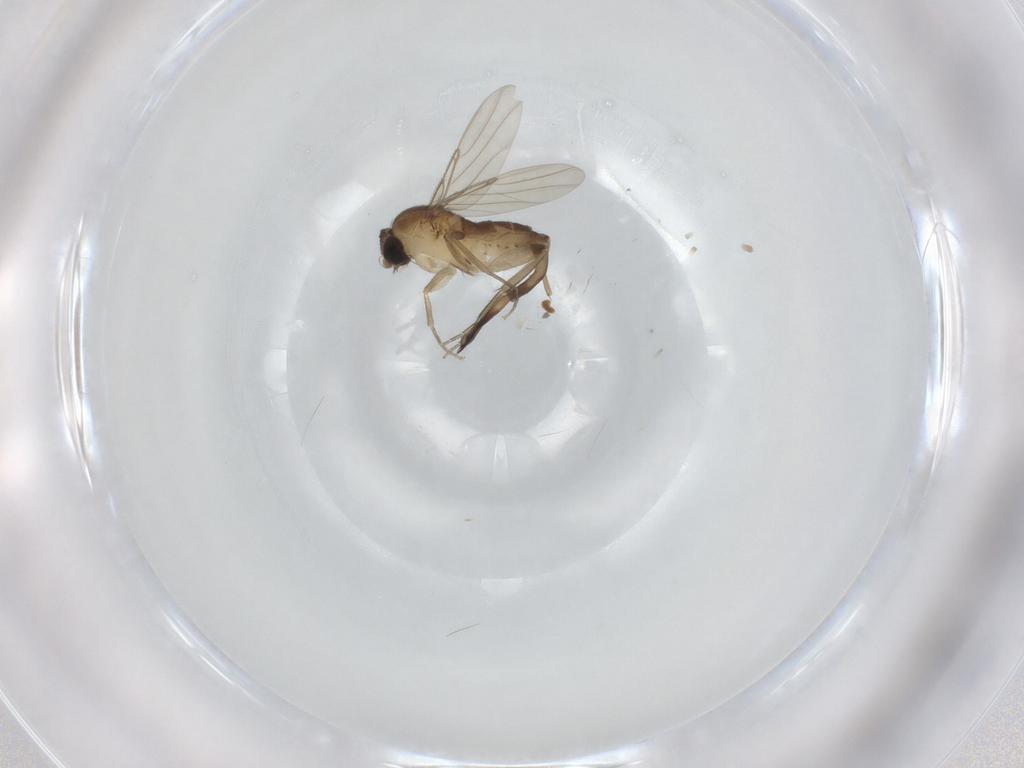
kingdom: Animalia
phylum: Arthropoda
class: Insecta
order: Diptera
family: Phoridae
